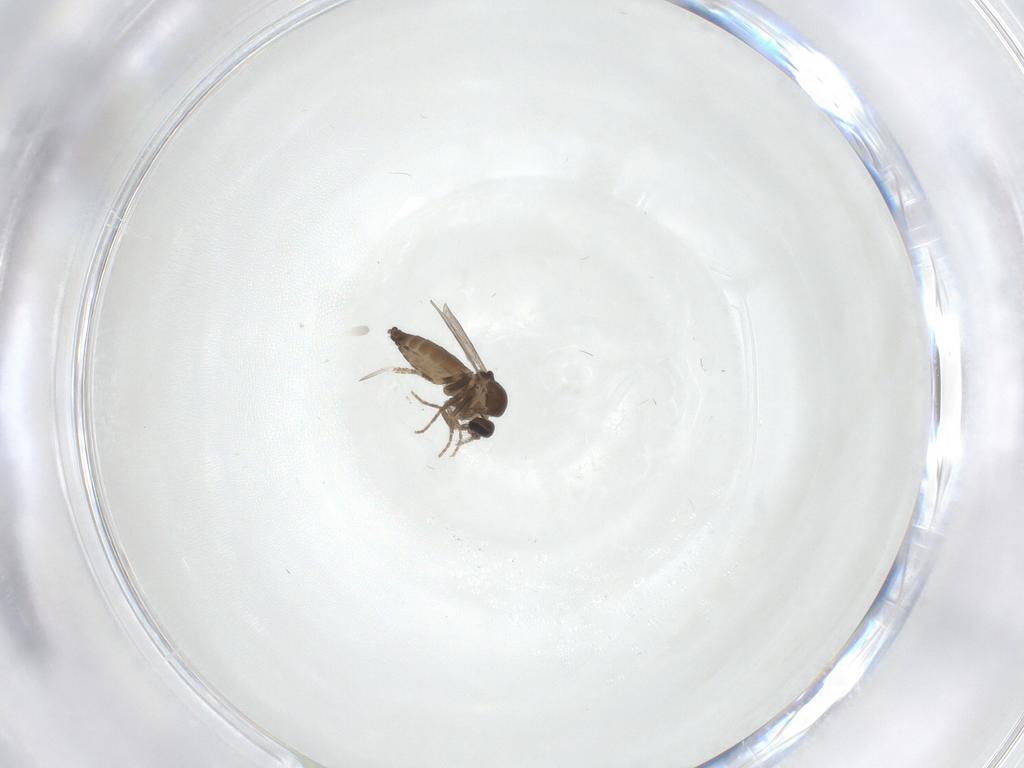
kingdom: Animalia
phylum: Arthropoda
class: Insecta
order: Diptera
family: Ceratopogonidae
